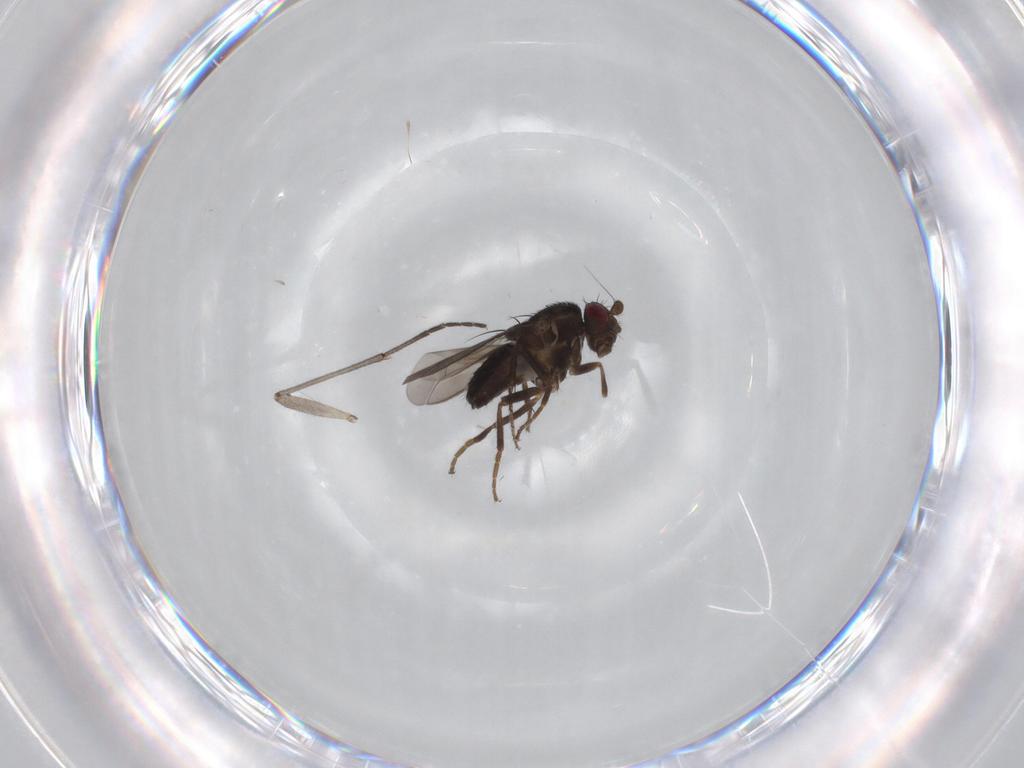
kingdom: Animalia
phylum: Arthropoda
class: Insecta
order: Diptera
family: Sphaeroceridae
